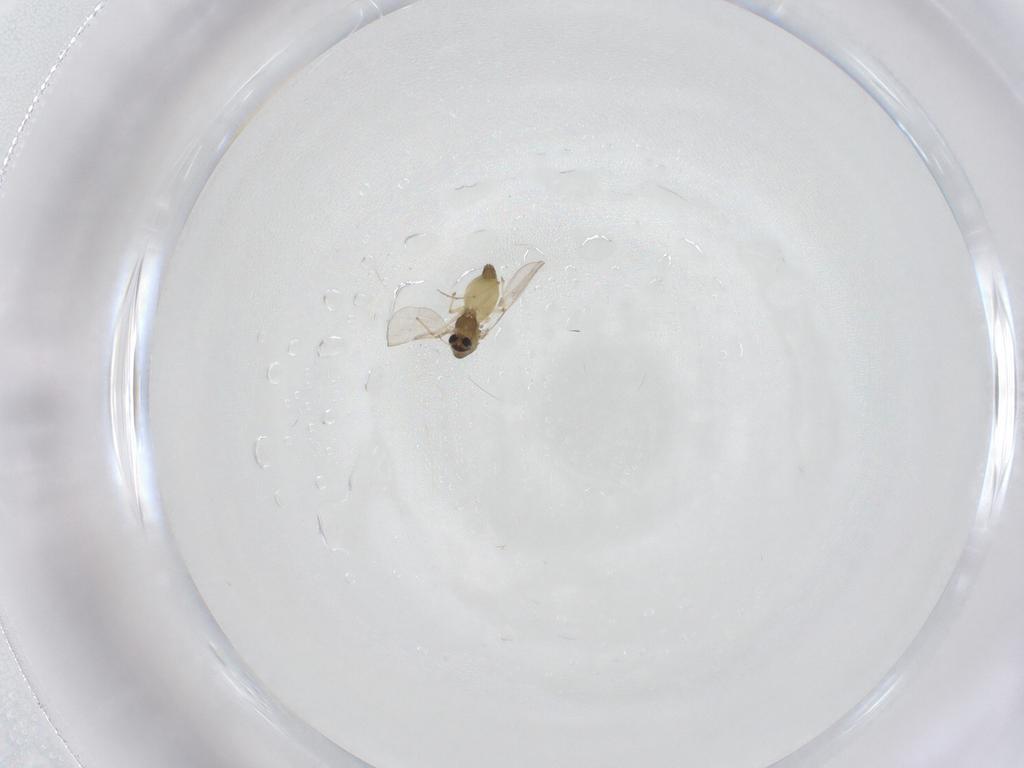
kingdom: Animalia
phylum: Arthropoda
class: Insecta
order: Diptera
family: Chironomidae
